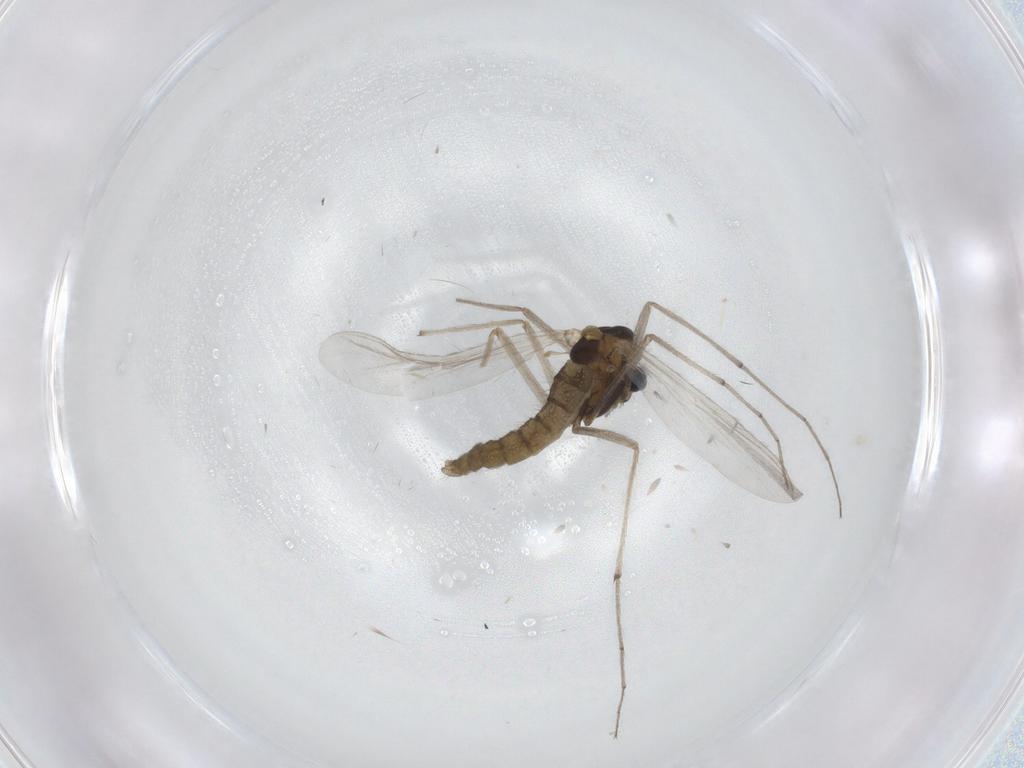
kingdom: Animalia
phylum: Arthropoda
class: Insecta
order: Diptera
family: Chironomidae
